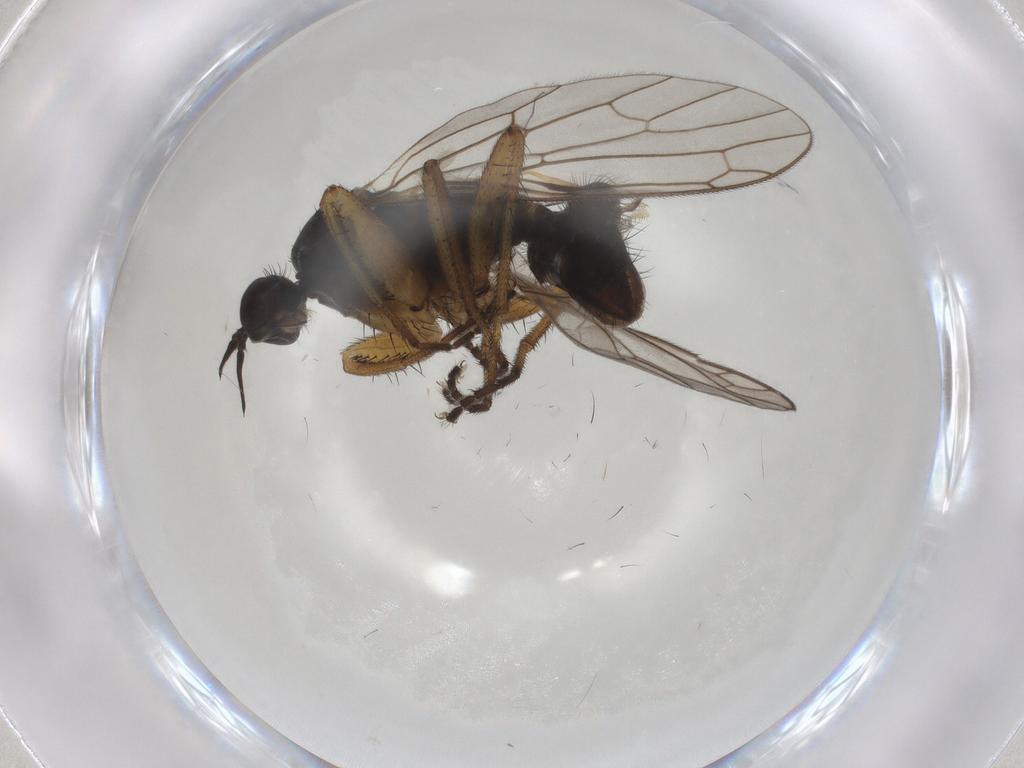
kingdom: Animalia
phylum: Arthropoda
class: Insecta
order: Diptera
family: Empididae
